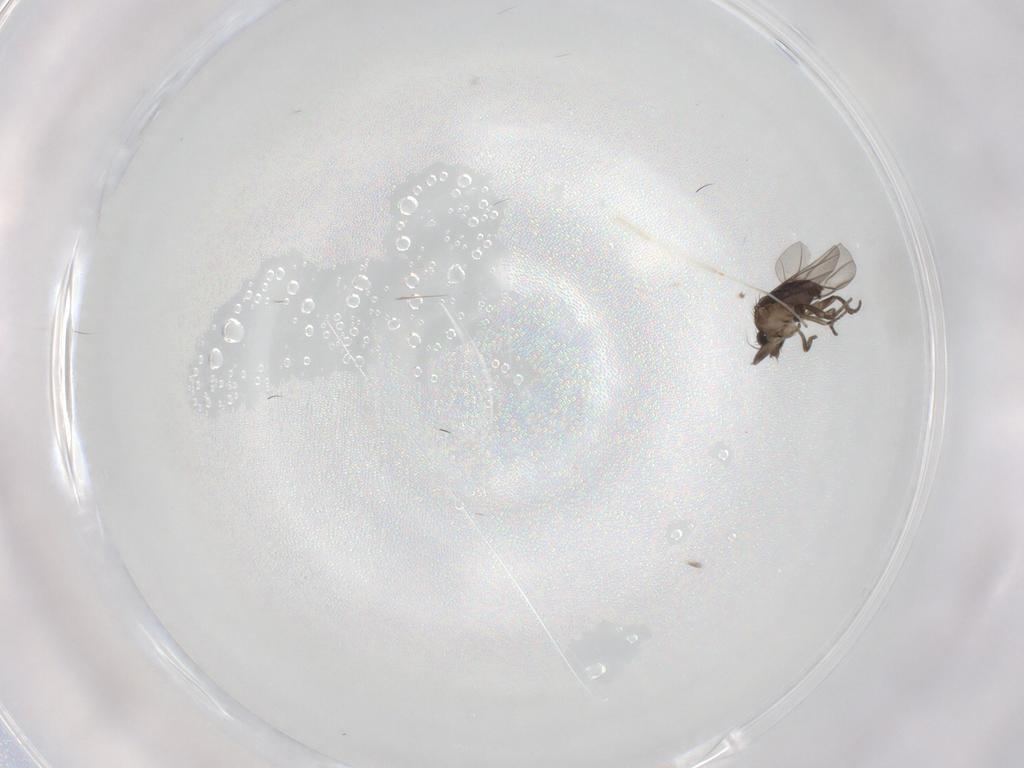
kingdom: Animalia
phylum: Arthropoda
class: Insecta
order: Diptera
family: Phoridae
